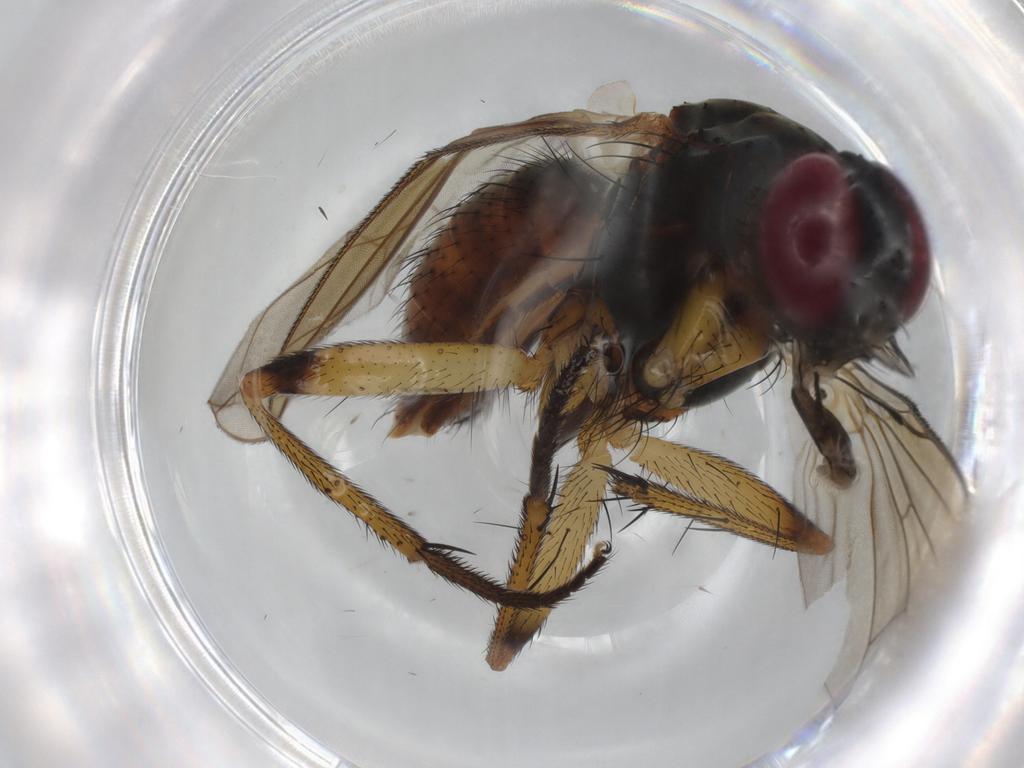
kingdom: Animalia
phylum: Arthropoda
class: Insecta
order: Diptera
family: Muscidae
